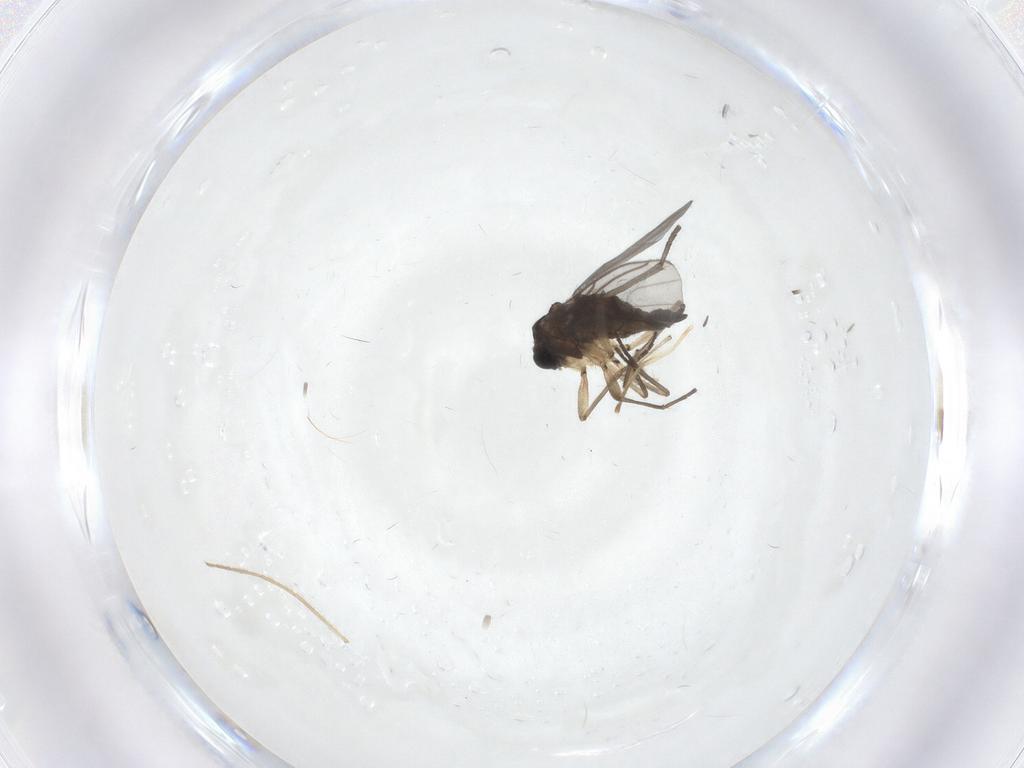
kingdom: Animalia
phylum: Arthropoda
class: Insecta
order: Diptera
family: Sciaridae
